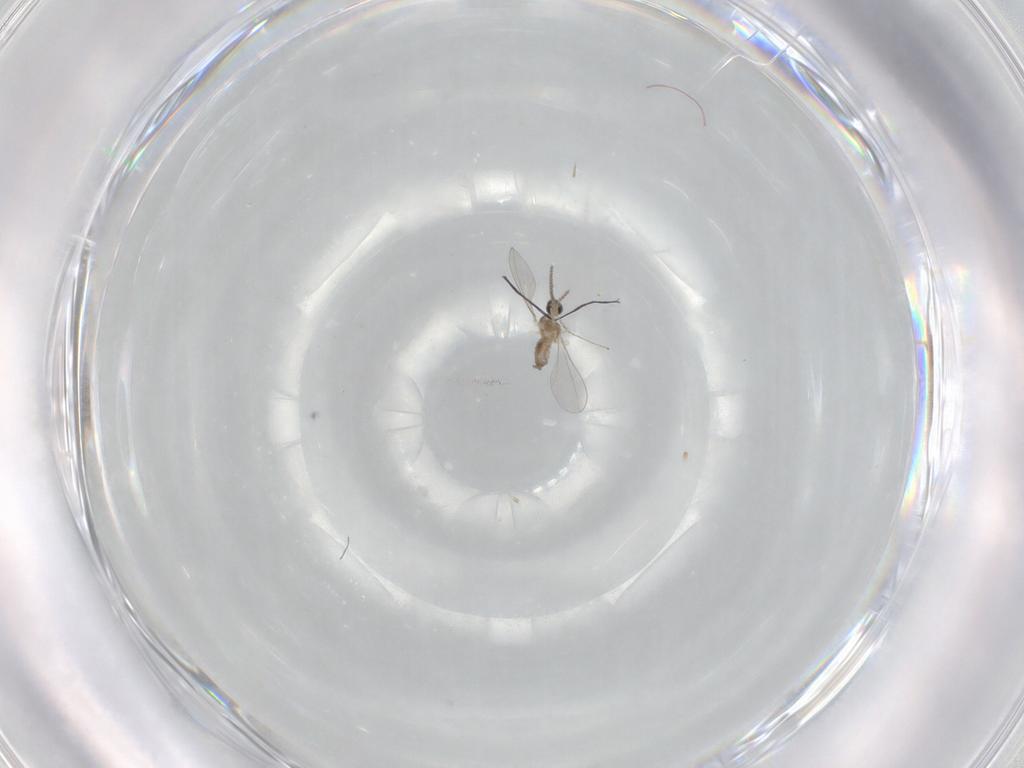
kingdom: Animalia
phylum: Arthropoda
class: Insecta
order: Diptera
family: Cecidomyiidae
